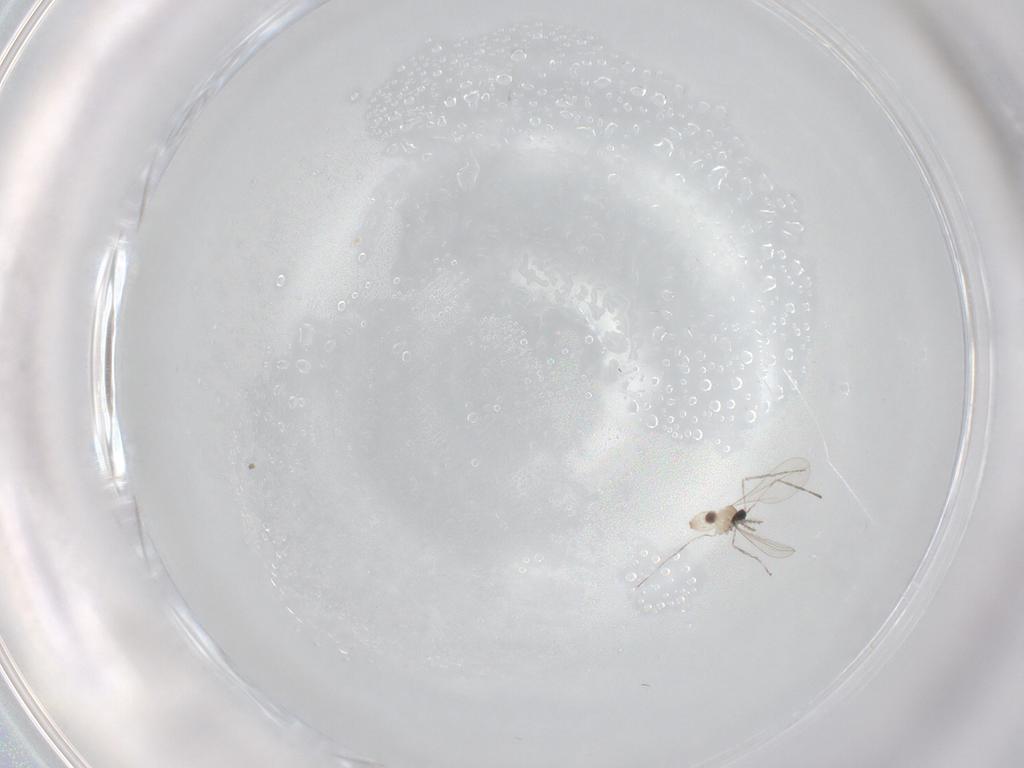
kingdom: Animalia
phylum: Arthropoda
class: Insecta
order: Diptera
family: Cecidomyiidae
